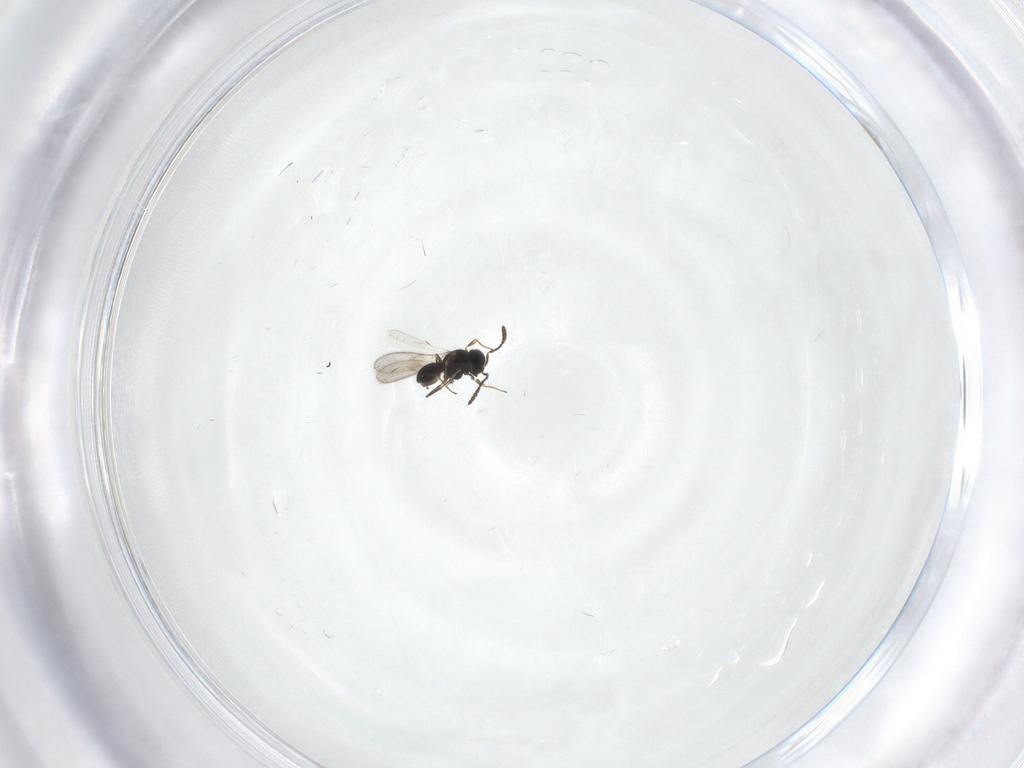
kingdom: Animalia
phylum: Arthropoda
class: Insecta
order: Hymenoptera
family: Scelionidae
